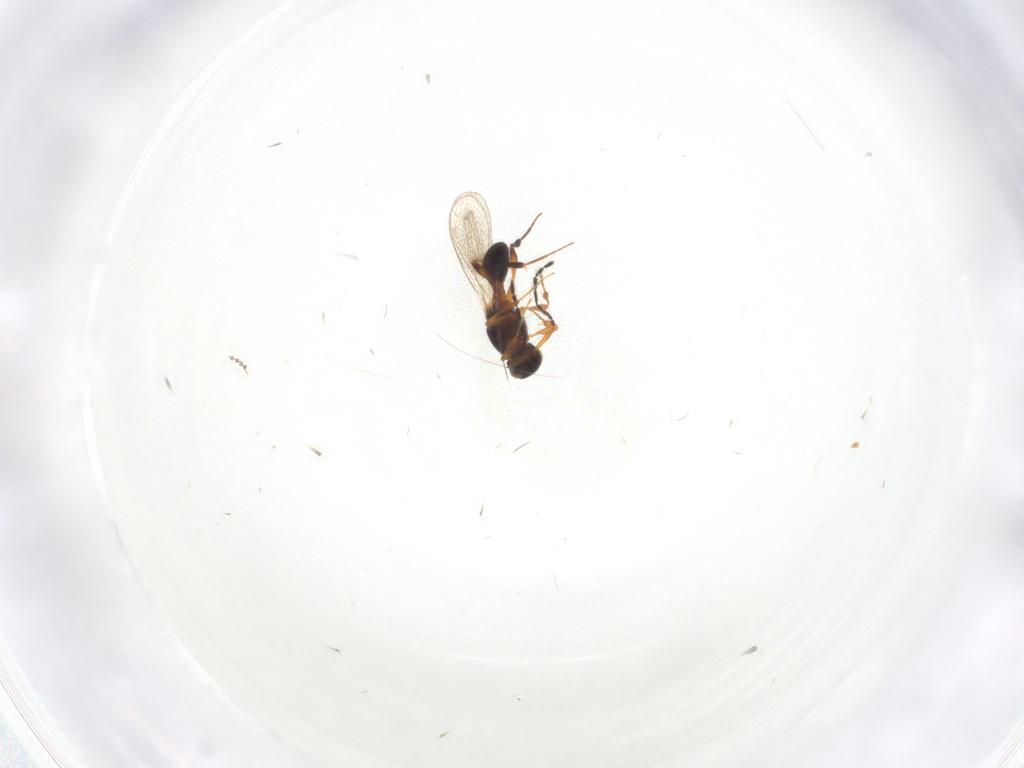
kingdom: Animalia
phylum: Arthropoda
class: Insecta
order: Hymenoptera
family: Platygastridae
